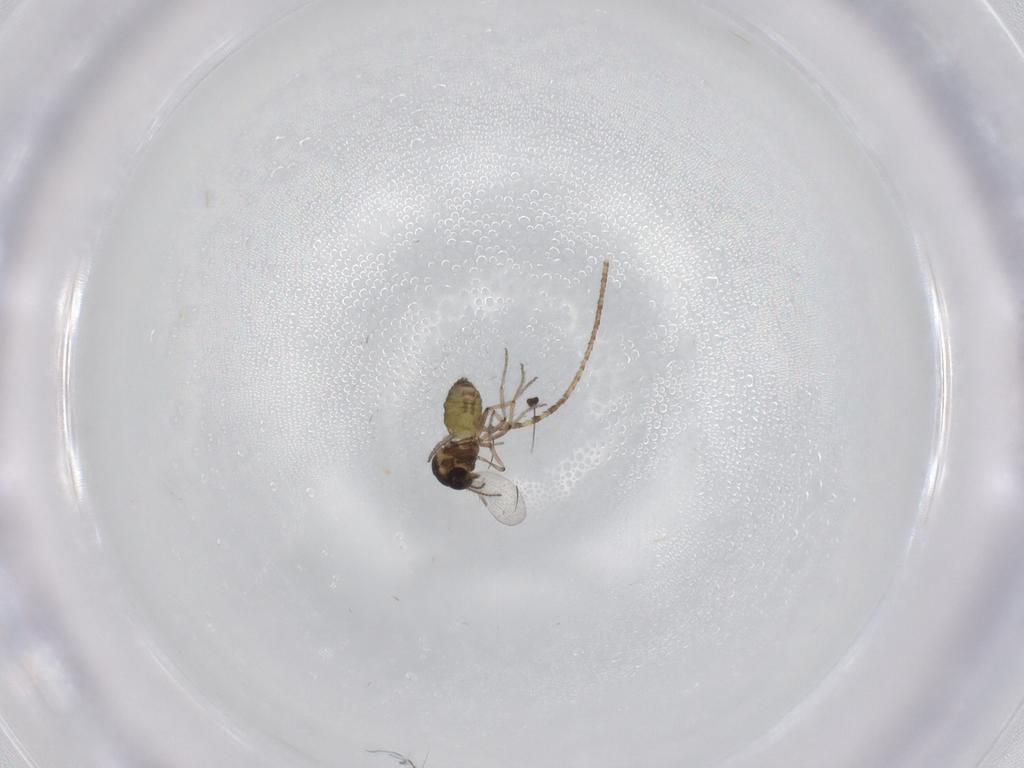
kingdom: Animalia
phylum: Arthropoda
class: Insecta
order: Diptera
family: Ceratopogonidae
